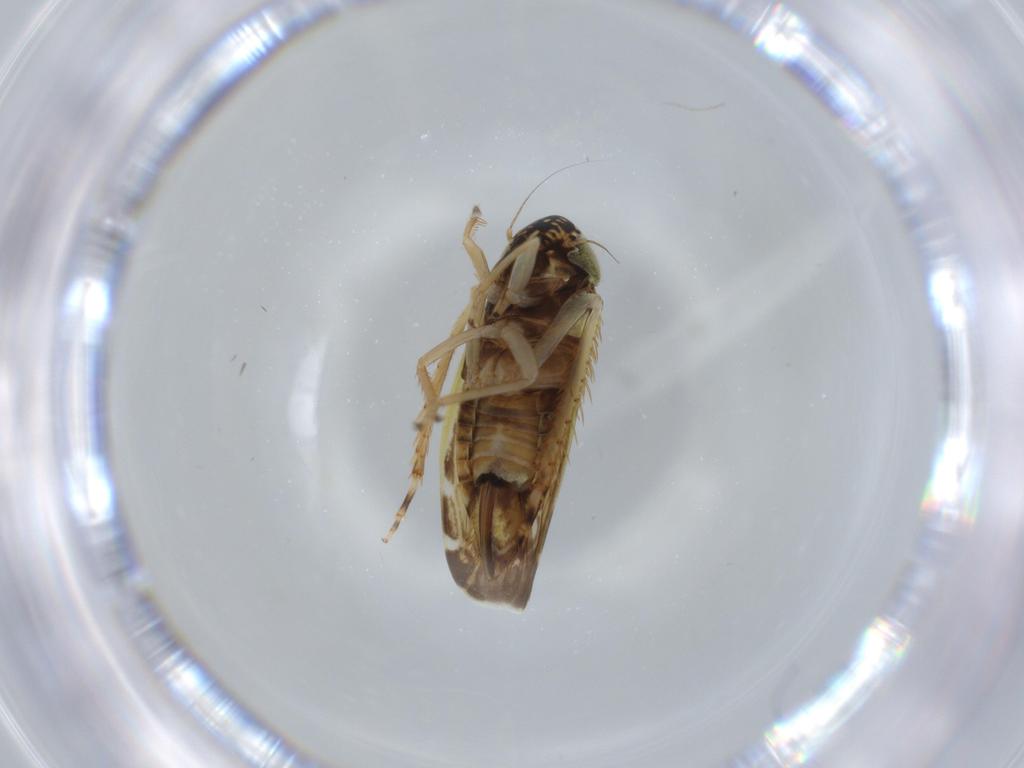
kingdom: Animalia
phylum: Arthropoda
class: Insecta
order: Hemiptera
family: Cicadellidae
